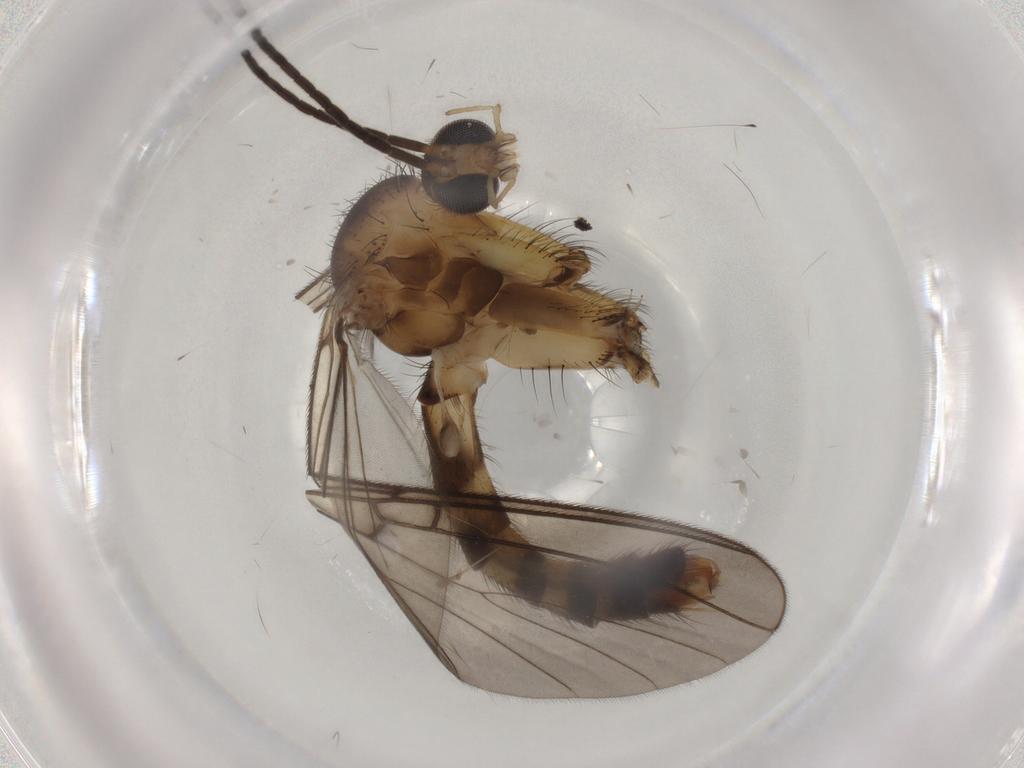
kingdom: Animalia
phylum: Arthropoda
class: Insecta
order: Diptera
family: Mycetophilidae
